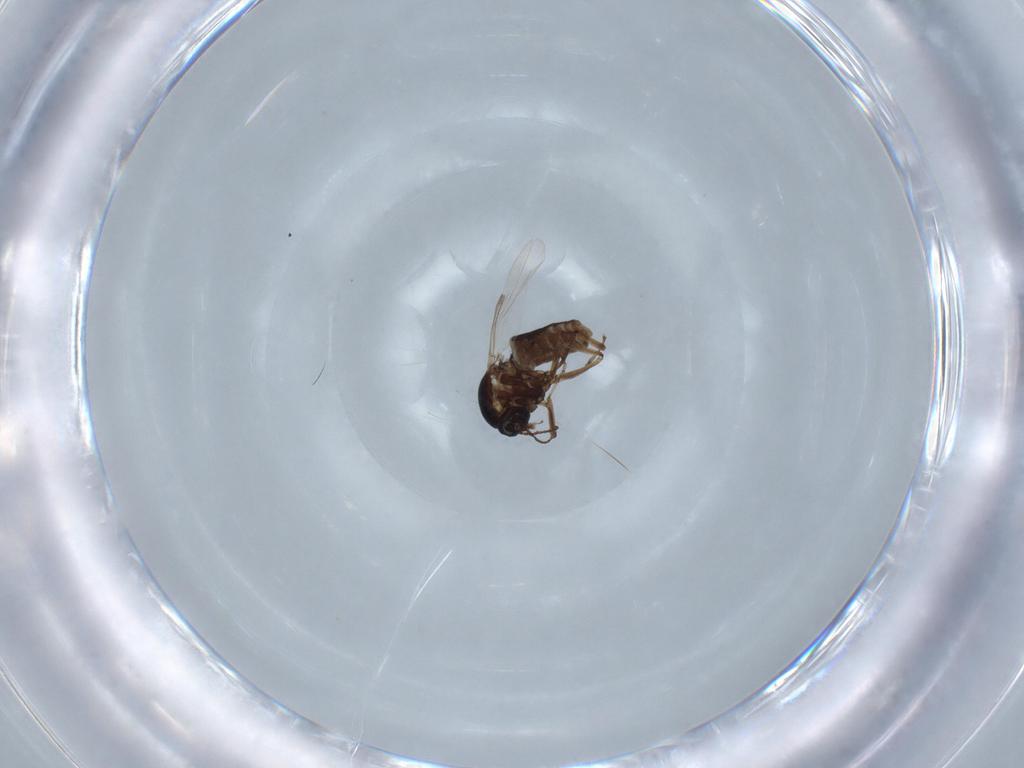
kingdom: Animalia
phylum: Arthropoda
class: Insecta
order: Diptera
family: Ceratopogonidae
